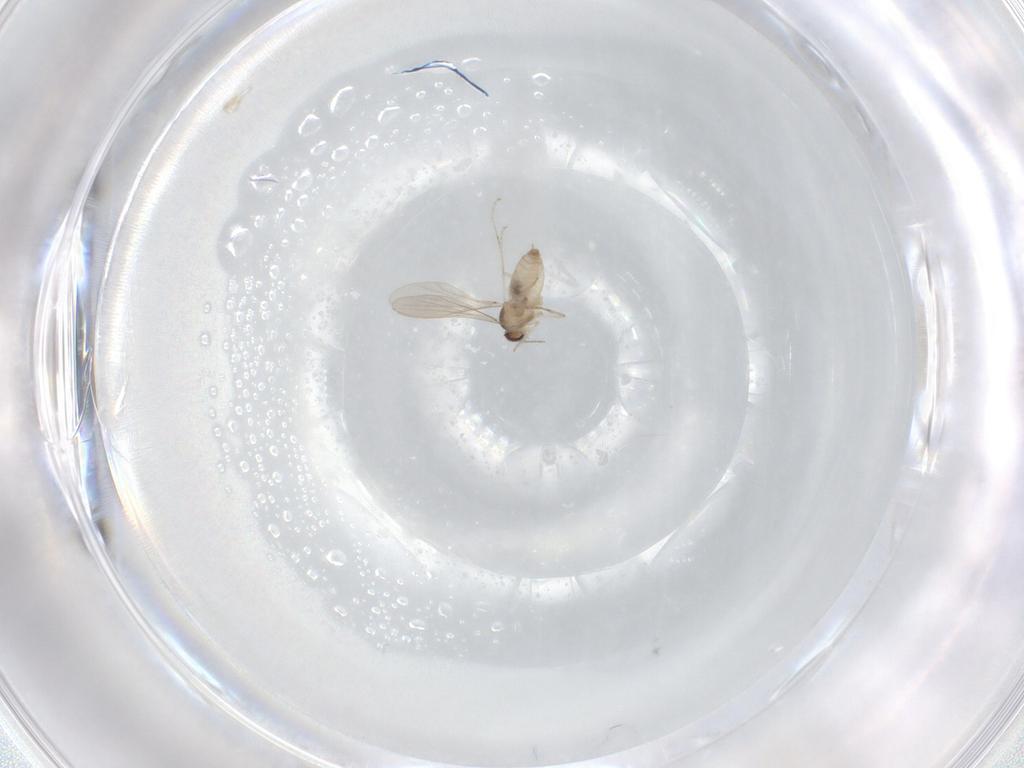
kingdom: Animalia
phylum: Arthropoda
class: Insecta
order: Diptera
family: Cecidomyiidae
